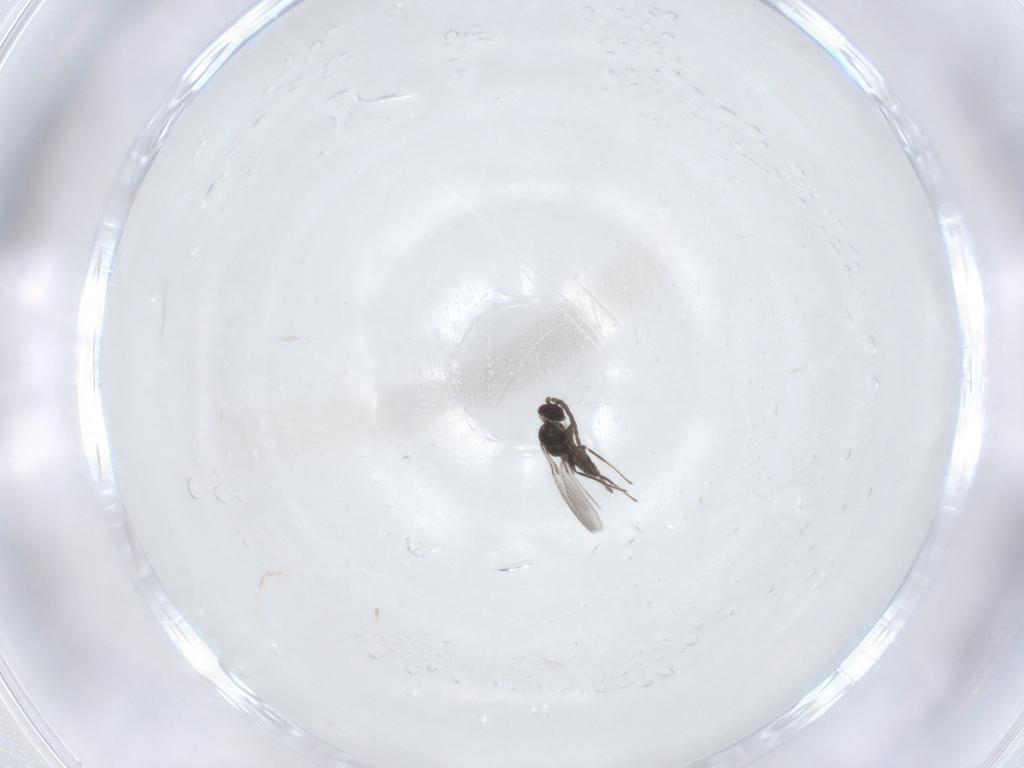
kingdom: Animalia
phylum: Arthropoda
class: Insecta
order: Hymenoptera
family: Mymaridae
